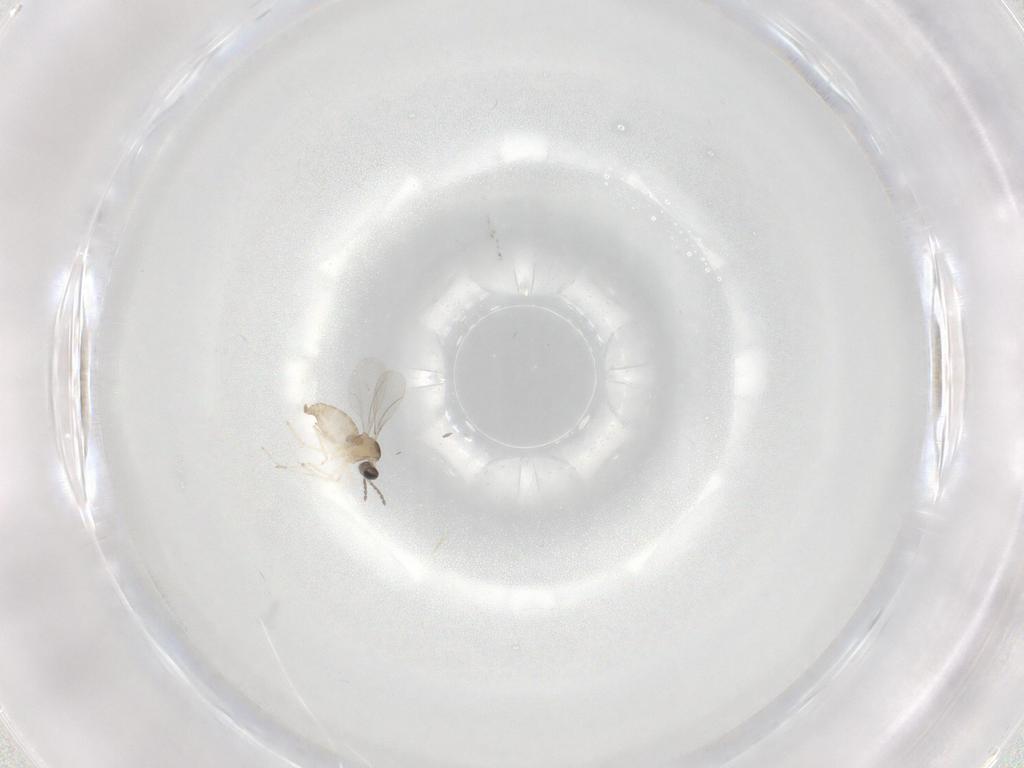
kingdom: Animalia
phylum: Arthropoda
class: Insecta
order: Diptera
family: Cecidomyiidae
